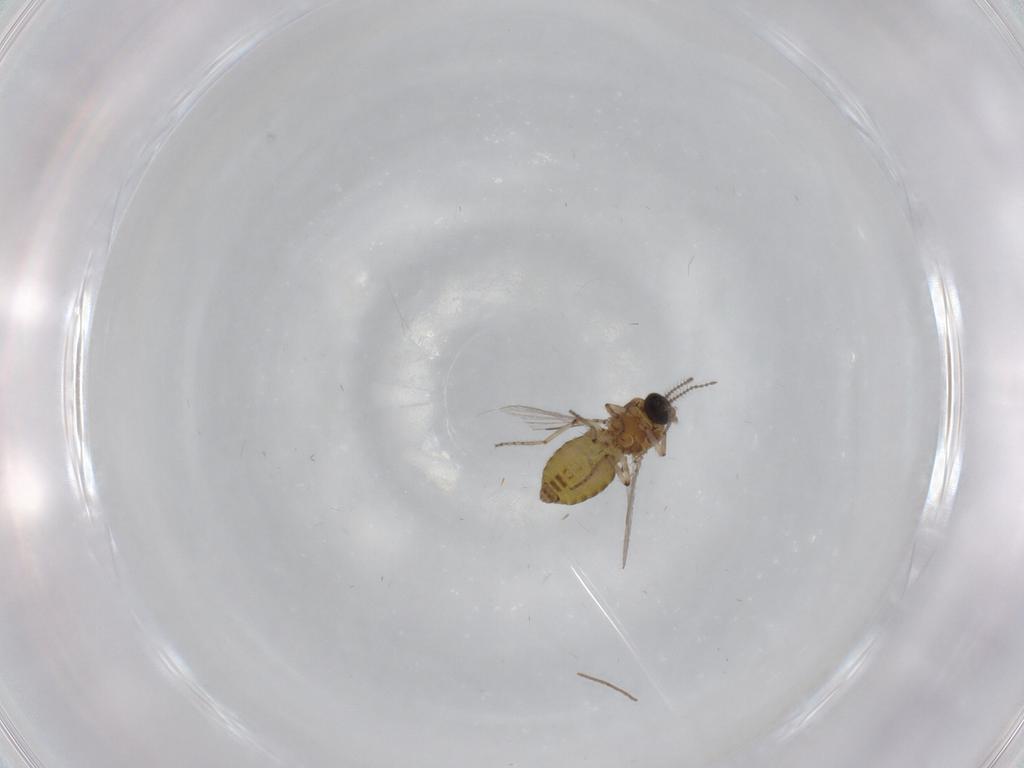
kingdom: Animalia
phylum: Arthropoda
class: Insecta
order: Diptera
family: Ceratopogonidae
